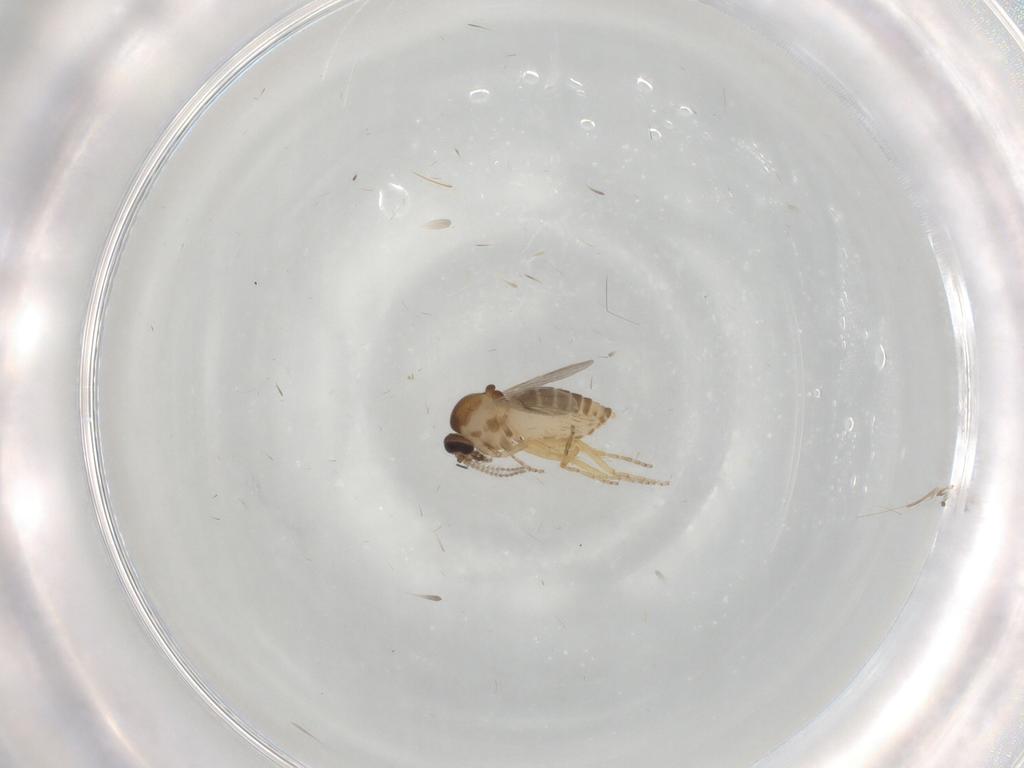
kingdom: Animalia
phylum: Arthropoda
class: Insecta
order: Diptera
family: Ceratopogonidae
